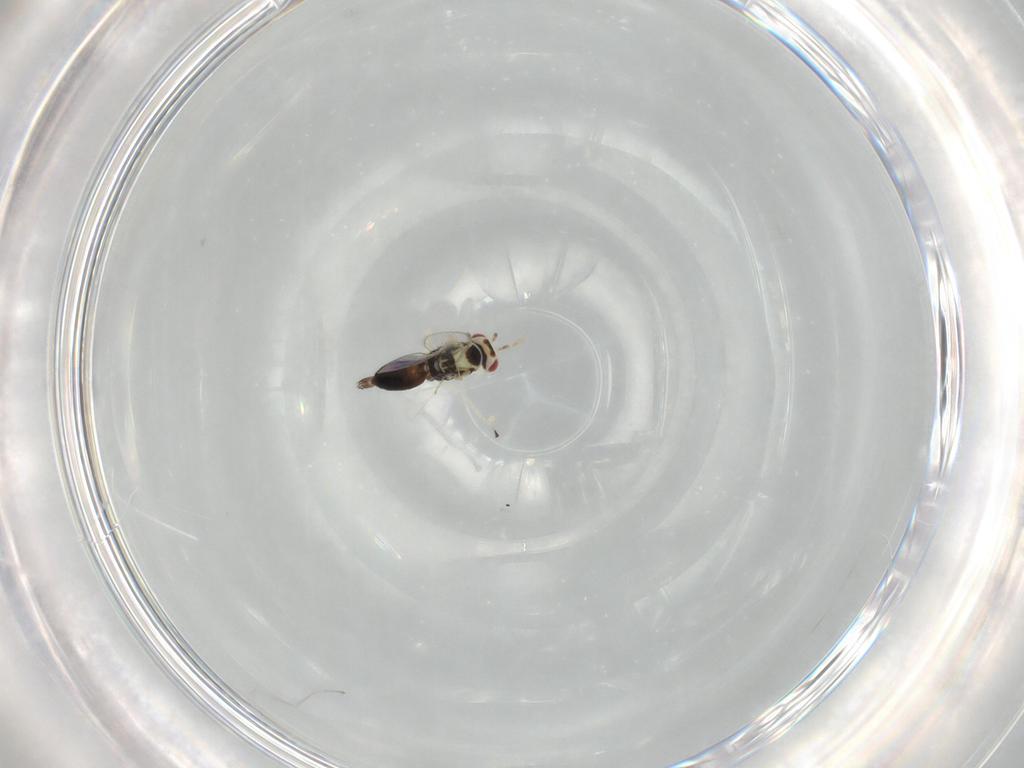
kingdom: Animalia
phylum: Arthropoda
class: Insecta
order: Hymenoptera
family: Eulophidae
